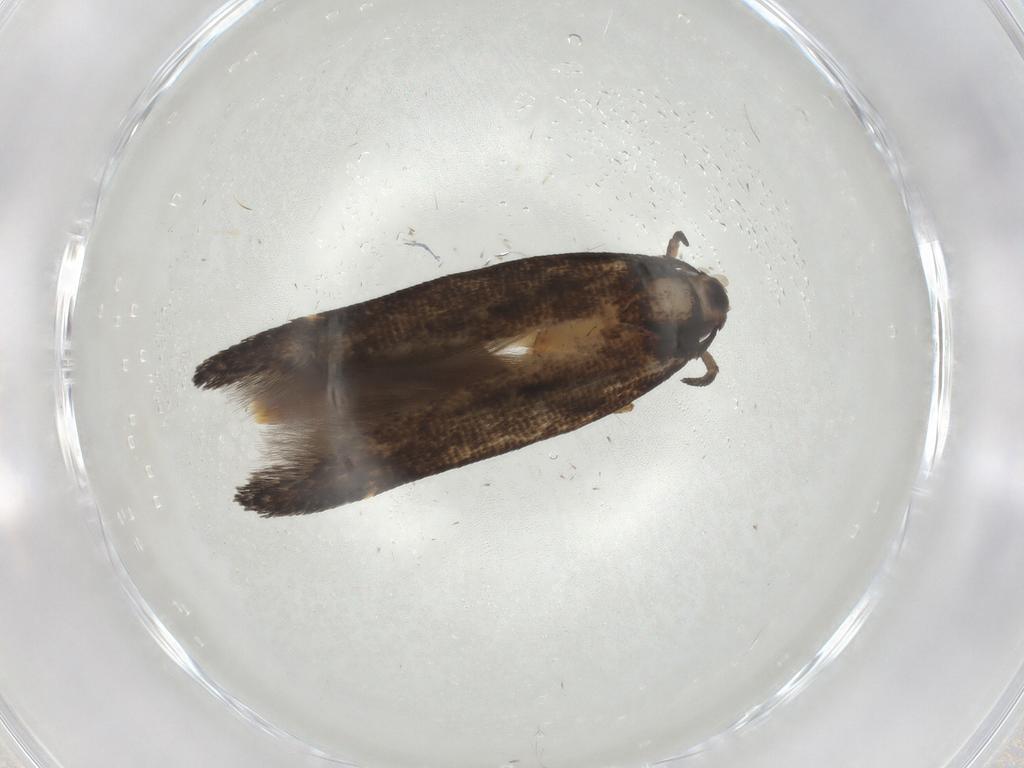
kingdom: Animalia
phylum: Arthropoda
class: Insecta
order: Lepidoptera
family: Cosmopterigidae
